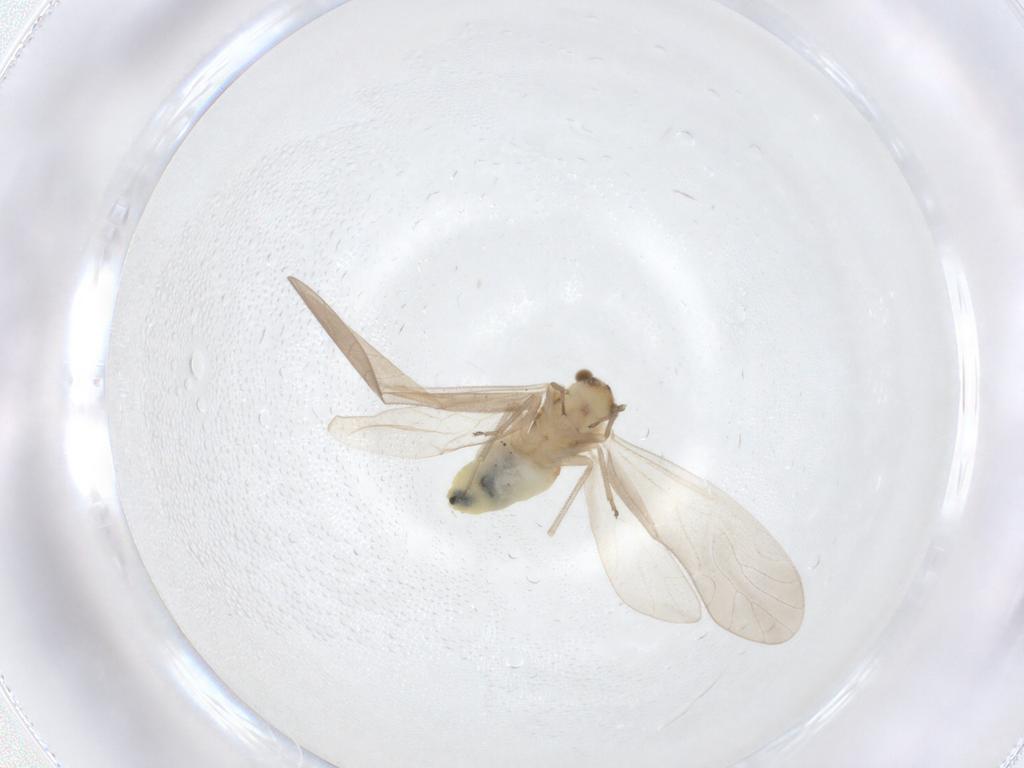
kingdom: Animalia
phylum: Arthropoda
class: Insecta
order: Psocodea
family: Caeciliusidae
